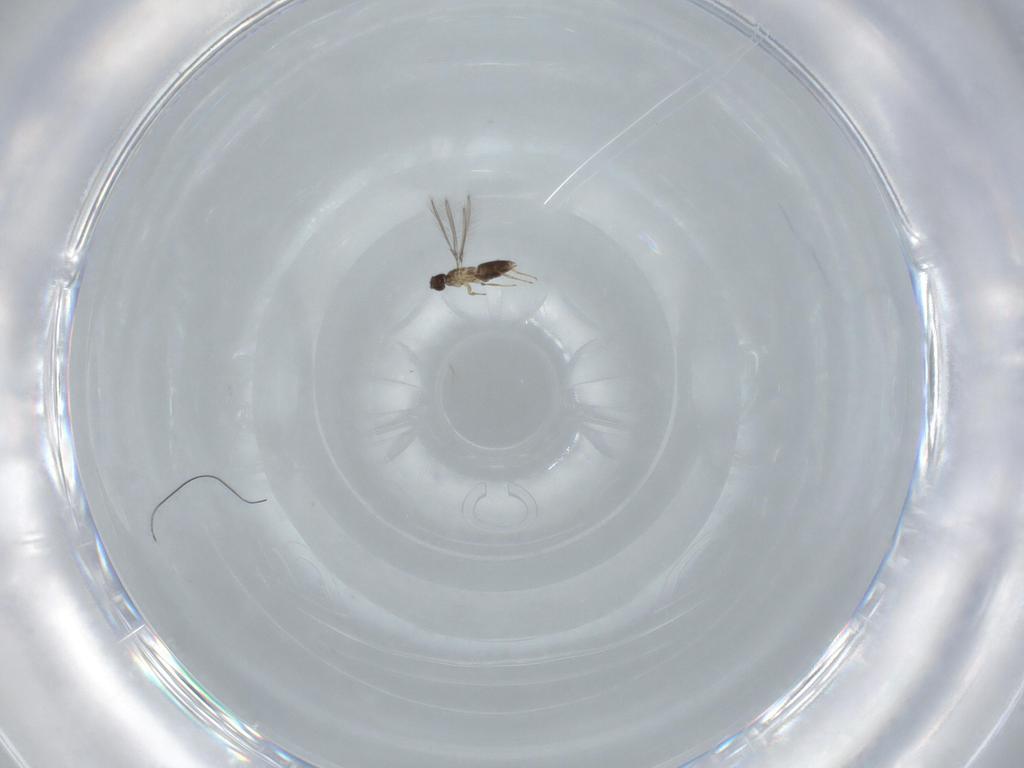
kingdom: Animalia
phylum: Arthropoda
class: Insecta
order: Hymenoptera
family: Mymaridae
